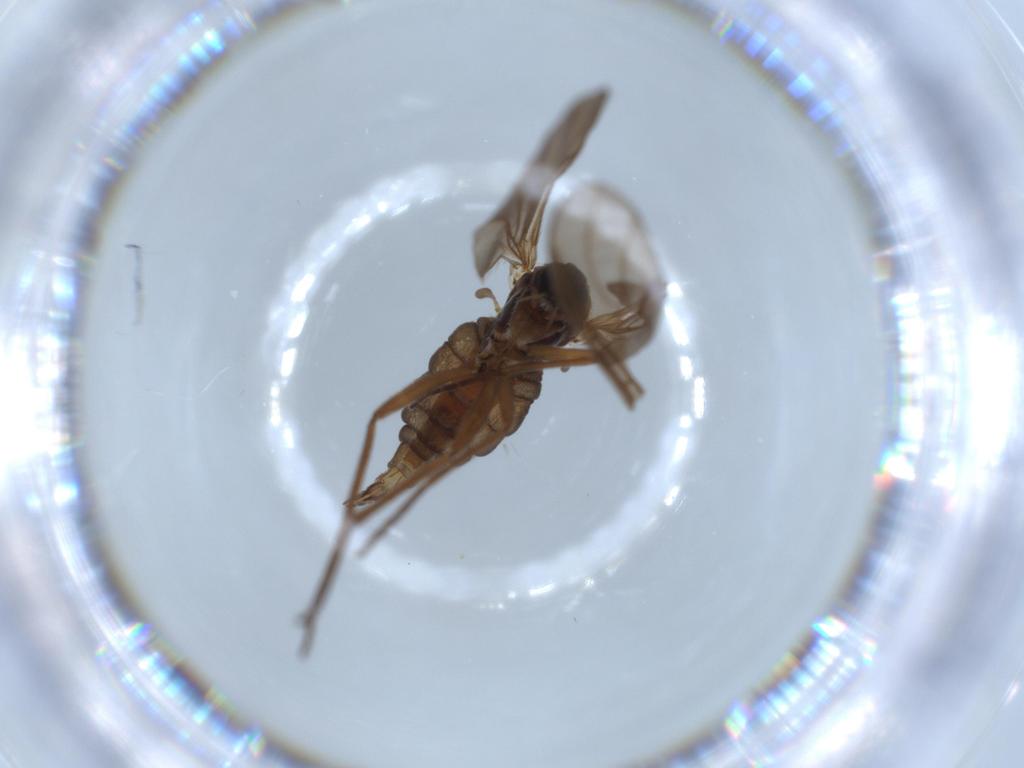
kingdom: Animalia
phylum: Arthropoda
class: Insecta
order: Diptera
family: Sciaridae
